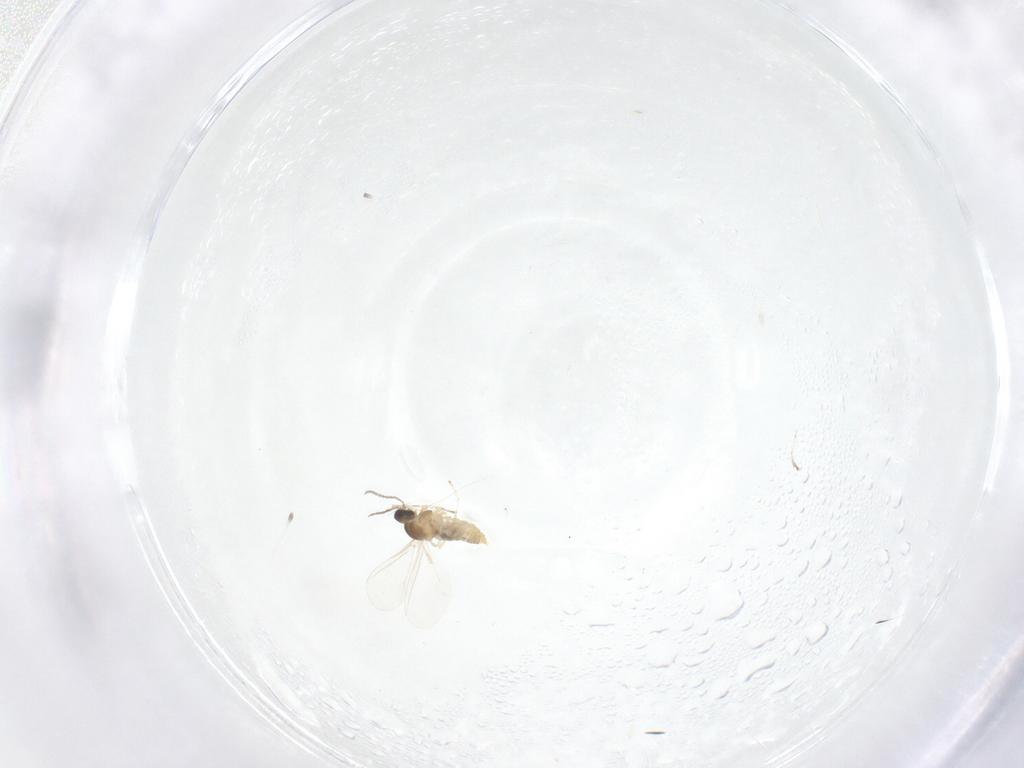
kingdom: Animalia
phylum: Arthropoda
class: Insecta
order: Diptera
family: Cecidomyiidae
